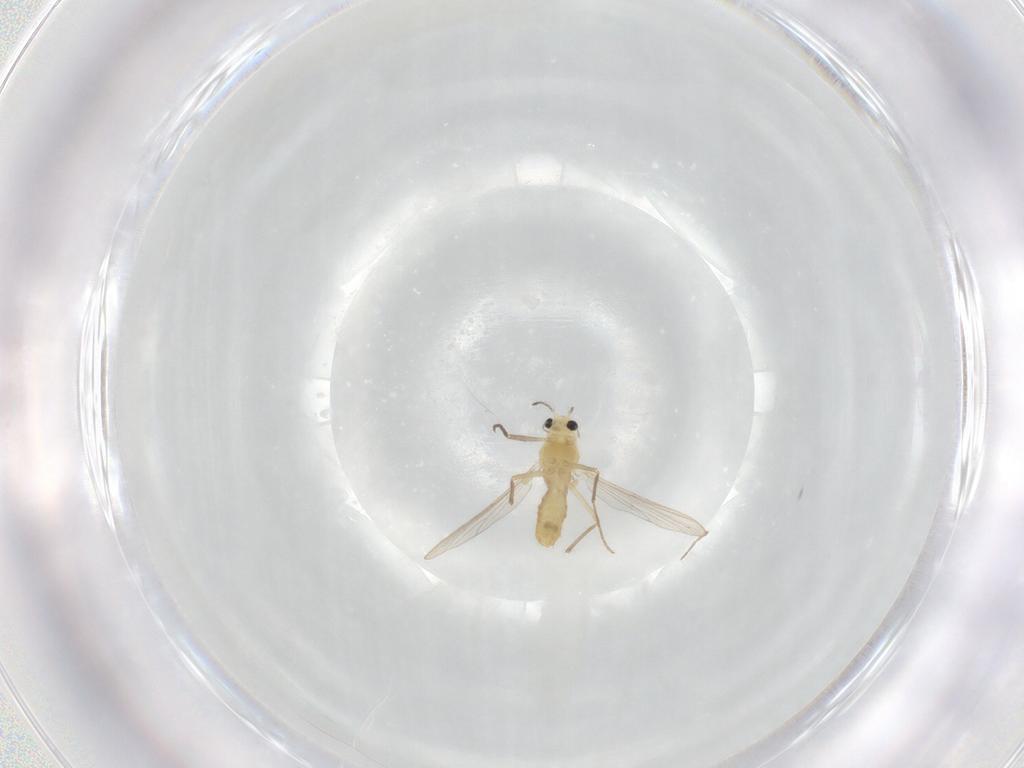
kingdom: Animalia
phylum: Arthropoda
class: Insecta
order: Diptera
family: Chironomidae
